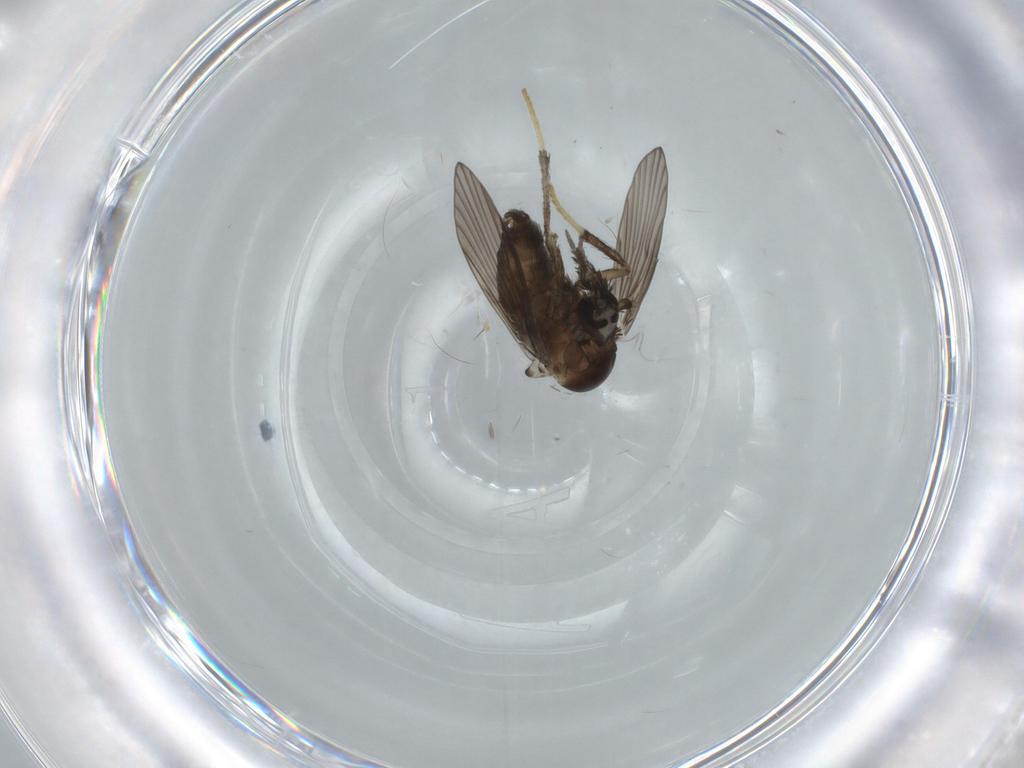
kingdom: Animalia
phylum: Arthropoda
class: Insecta
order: Diptera
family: Psychodidae
